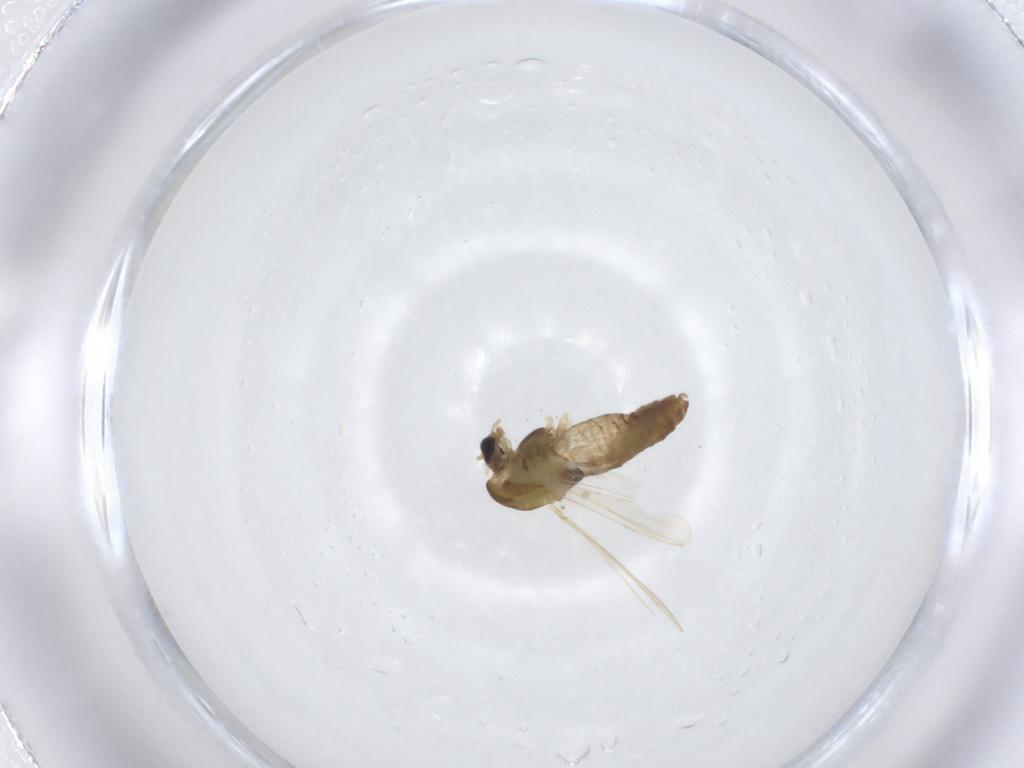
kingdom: Animalia
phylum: Arthropoda
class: Insecta
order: Diptera
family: Chironomidae
